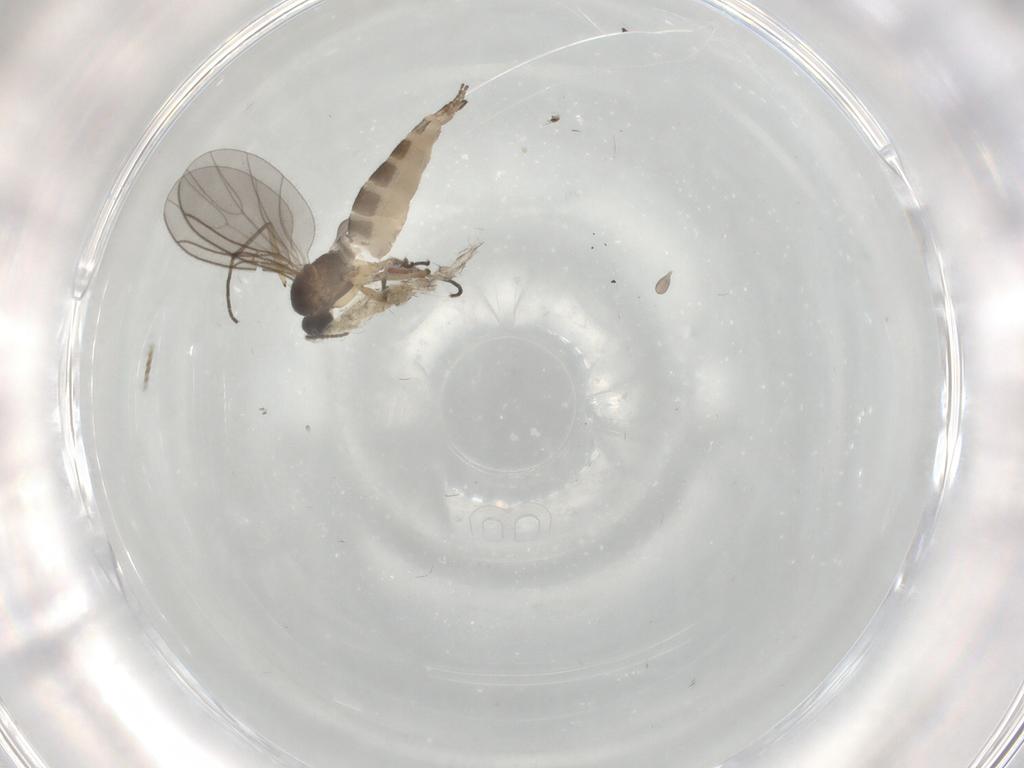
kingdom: Animalia
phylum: Arthropoda
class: Insecta
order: Diptera
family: Sciaridae
